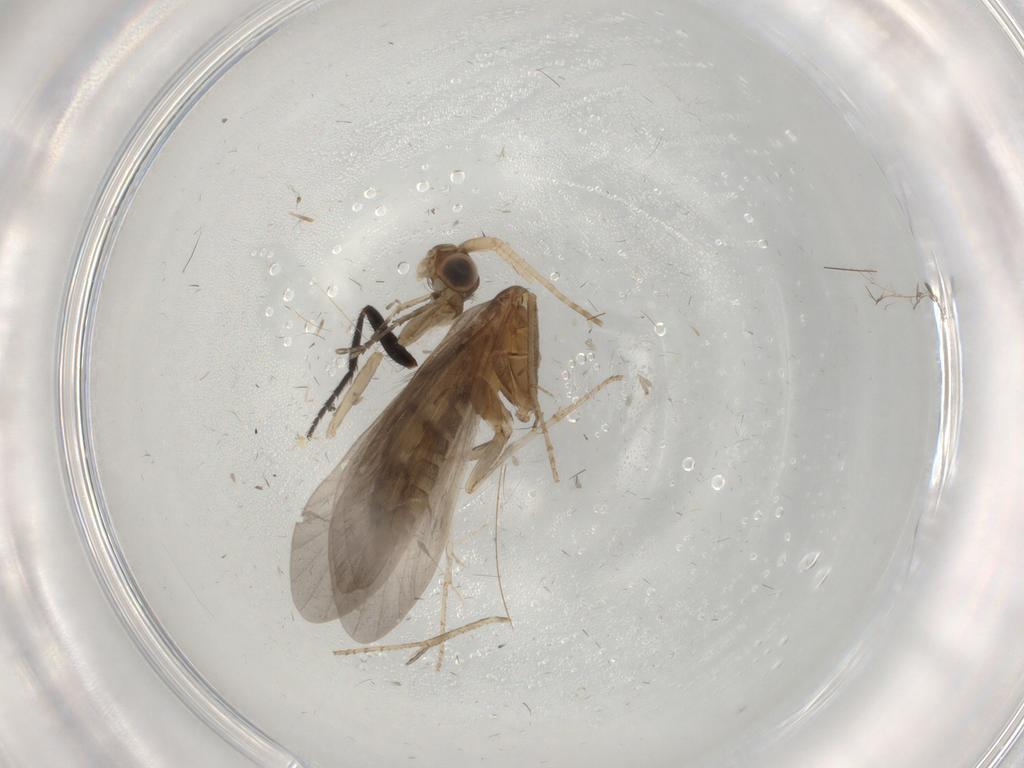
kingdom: Animalia
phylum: Arthropoda
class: Insecta
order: Trichoptera
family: Helicopsychidae
